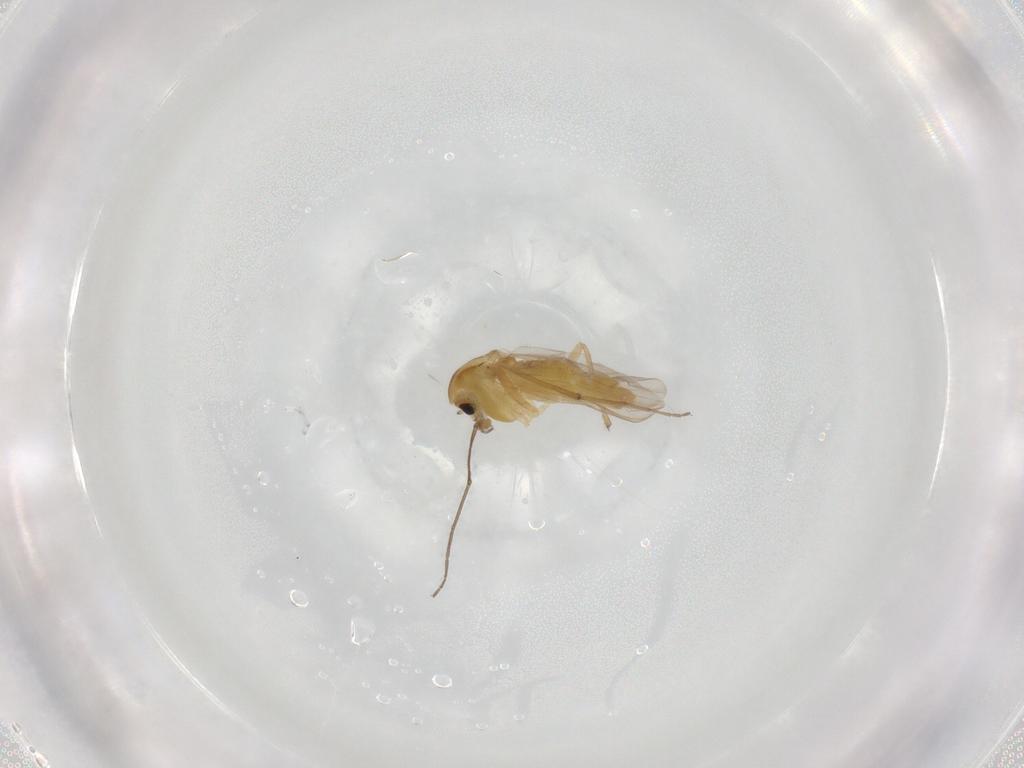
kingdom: Animalia
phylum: Arthropoda
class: Insecta
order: Diptera
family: Chironomidae
